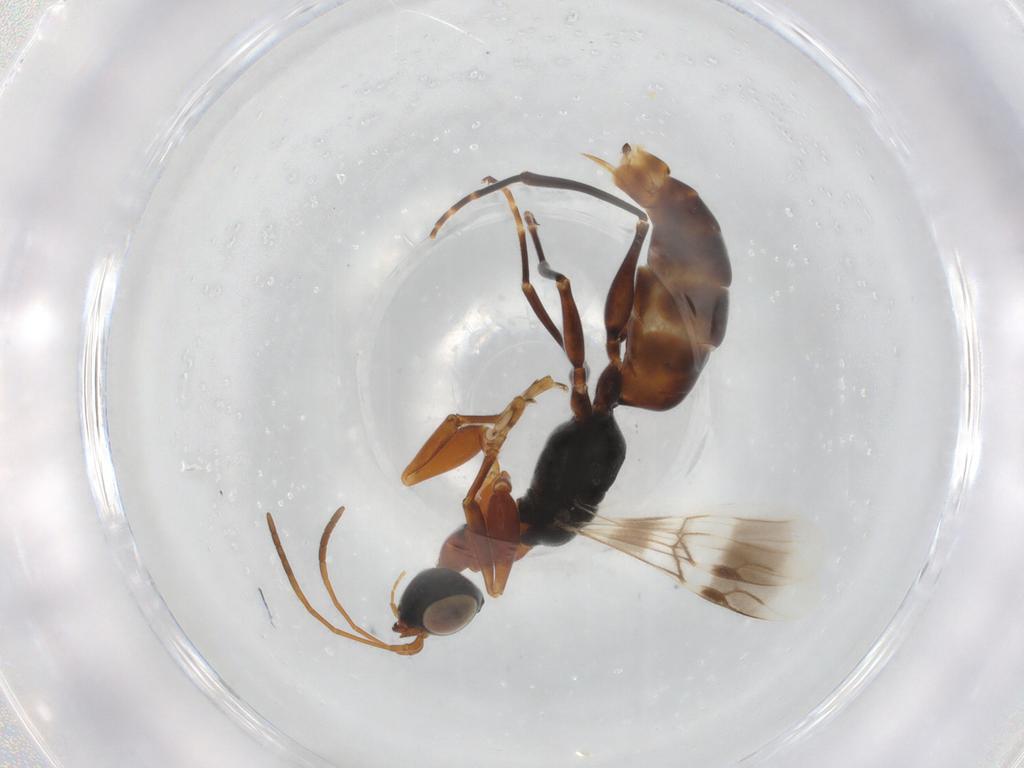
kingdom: Animalia
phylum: Arthropoda
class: Insecta
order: Hymenoptera
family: Dryinidae
